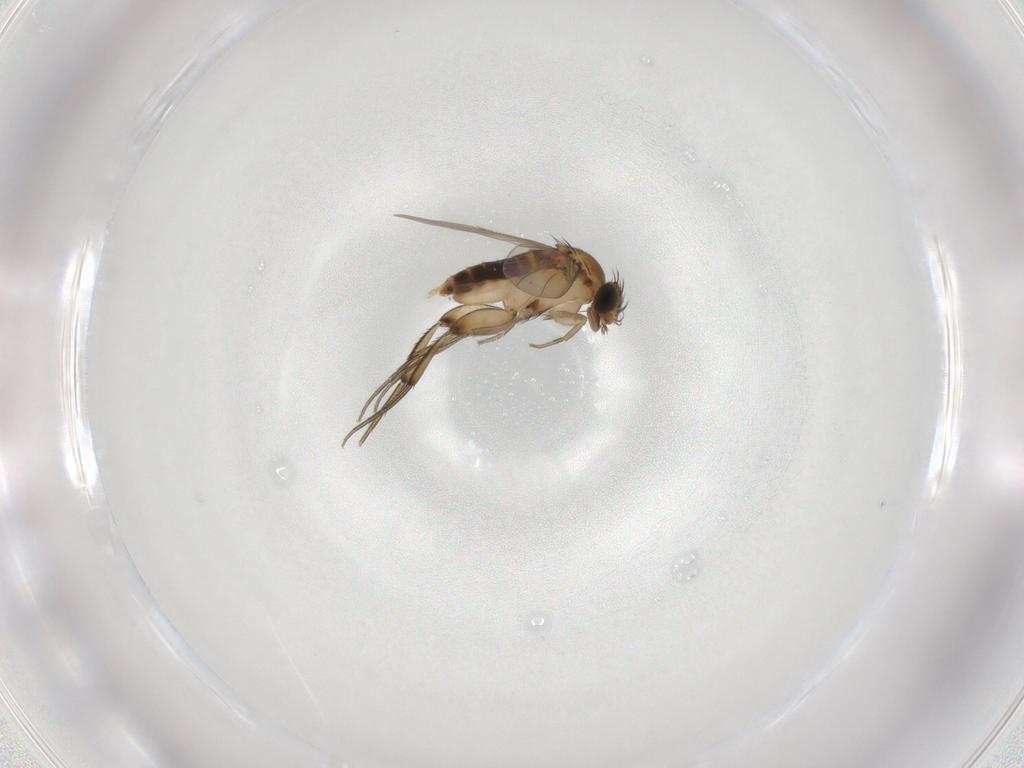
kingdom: Animalia
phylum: Arthropoda
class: Insecta
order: Diptera
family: Phoridae
